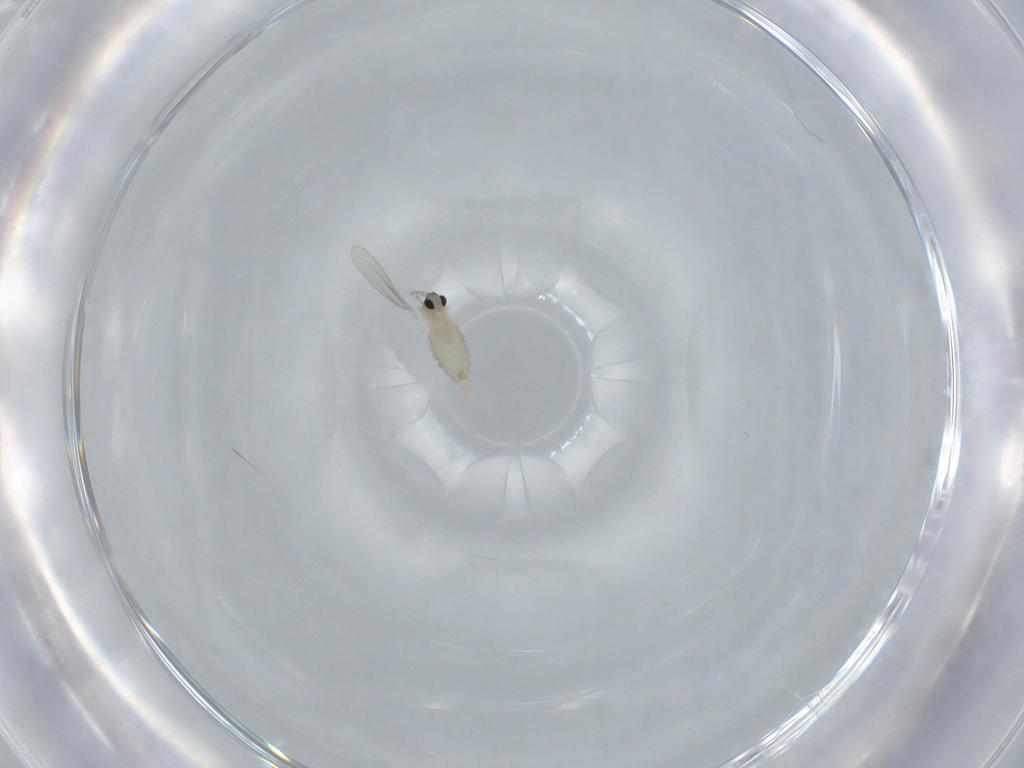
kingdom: Animalia
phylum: Arthropoda
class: Insecta
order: Diptera
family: Cecidomyiidae
